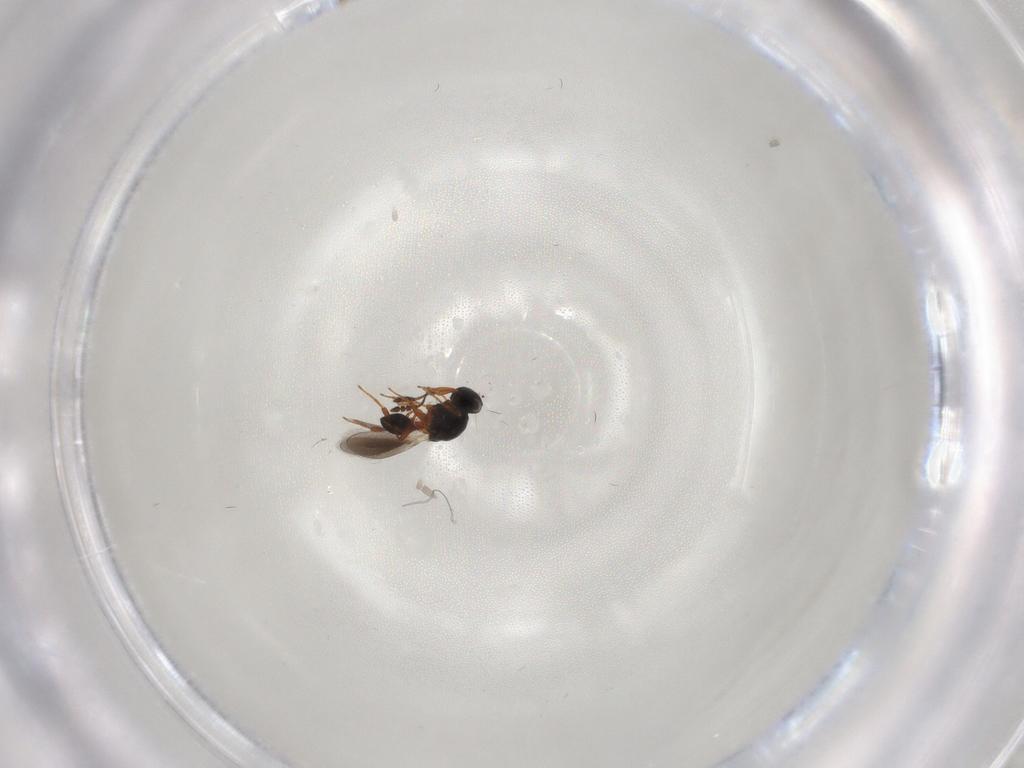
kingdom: Animalia
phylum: Arthropoda
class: Insecta
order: Hymenoptera
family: Platygastridae
